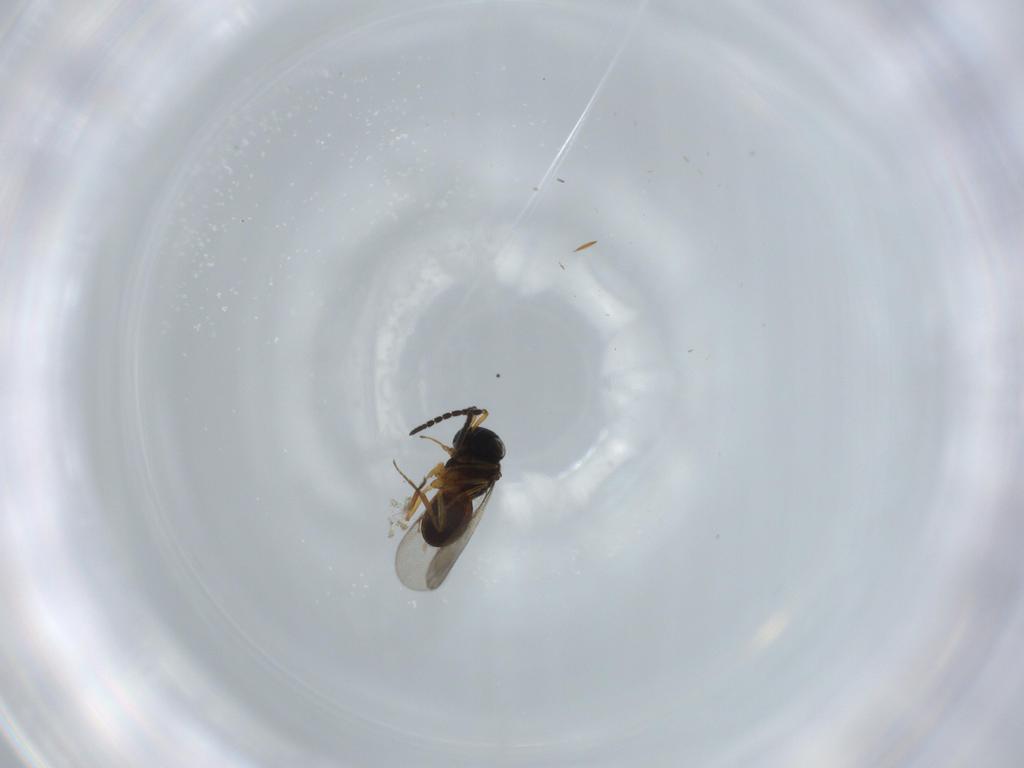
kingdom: Animalia
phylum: Arthropoda
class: Insecta
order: Coleoptera
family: Curculionidae
